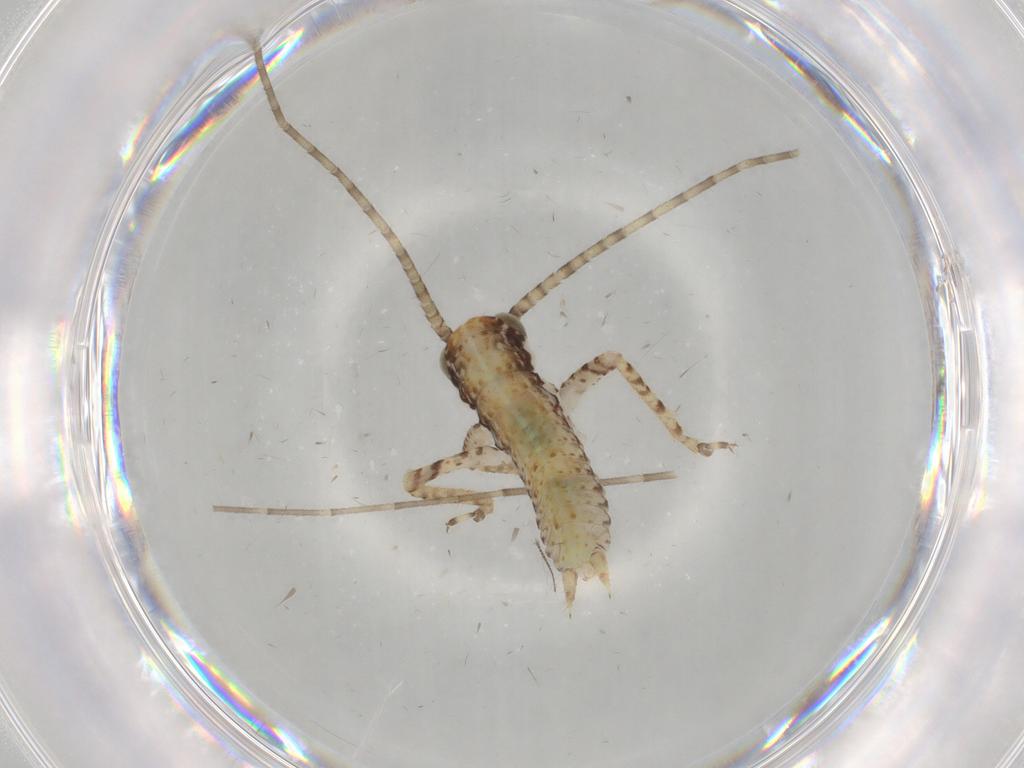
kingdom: Animalia
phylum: Arthropoda
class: Insecta
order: Orthoptera
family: Gryllidae
